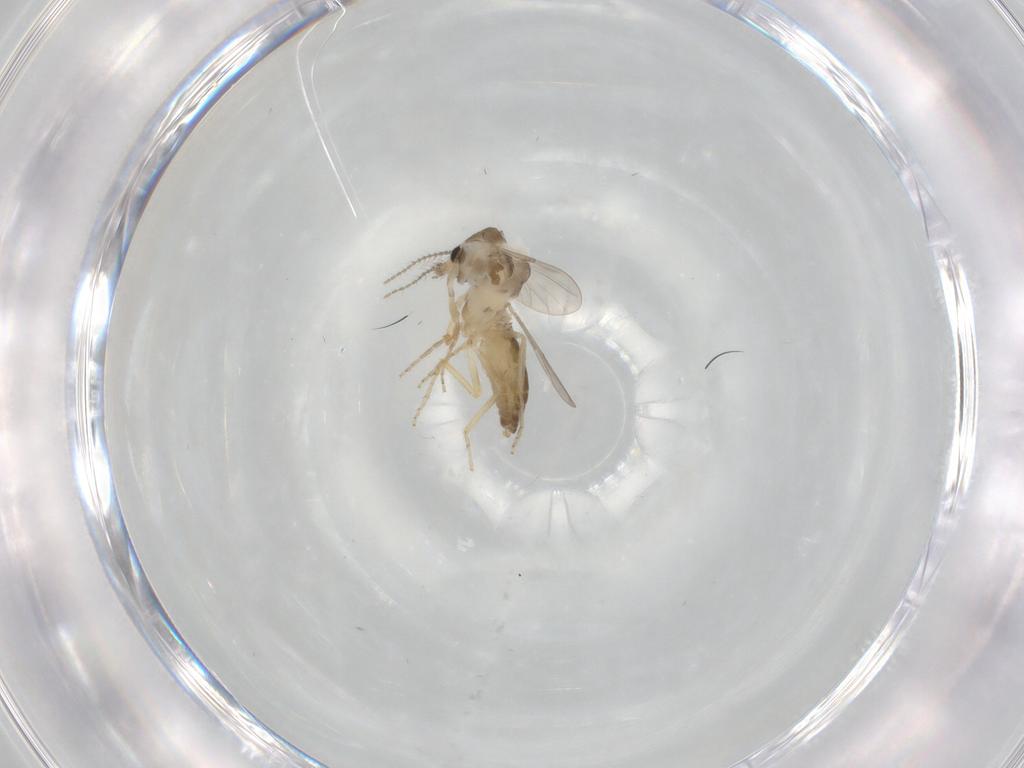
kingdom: Animalia
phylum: Arthropoda
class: Insecta
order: Diptera
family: Ceratopogonidae
